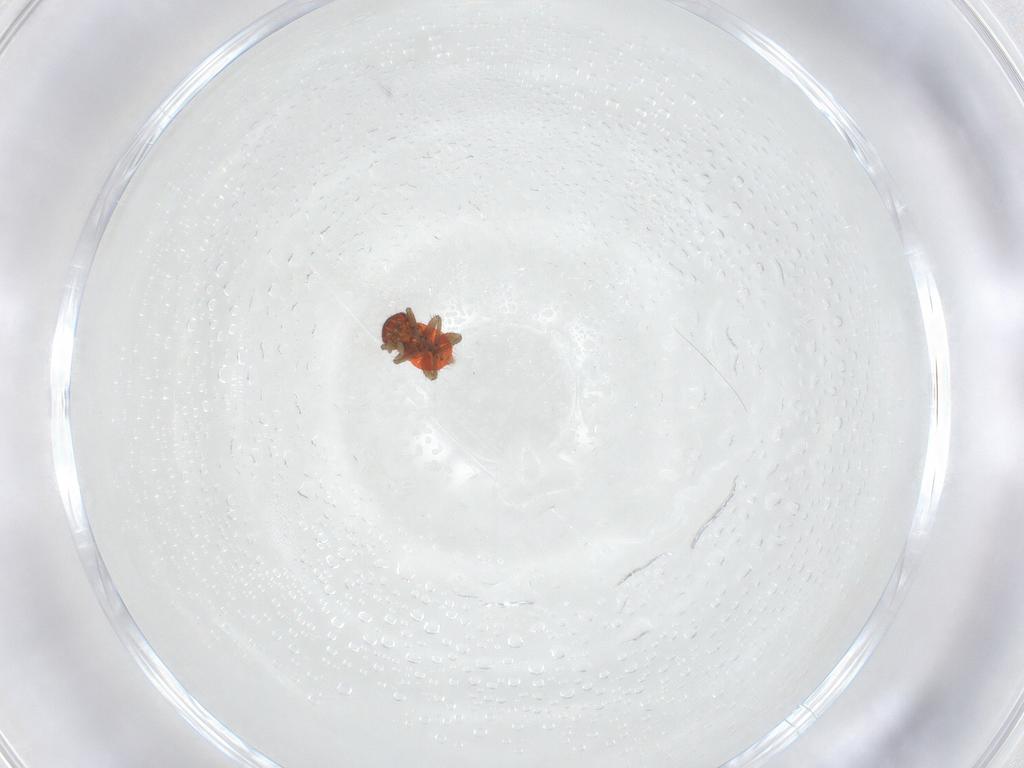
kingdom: Animalia
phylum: Arthropoda
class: Insecta
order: Hemiptera
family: Miridae
